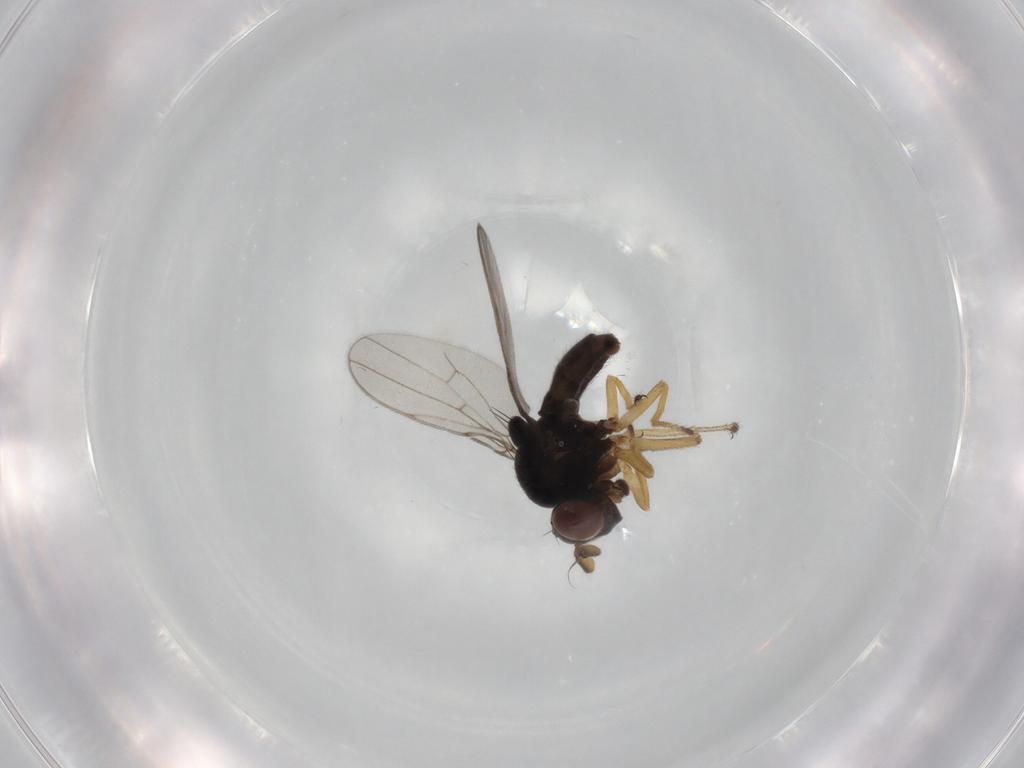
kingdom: Animalia
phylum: Arthropoda
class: Insecta
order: Diptera
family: Ephydridae
